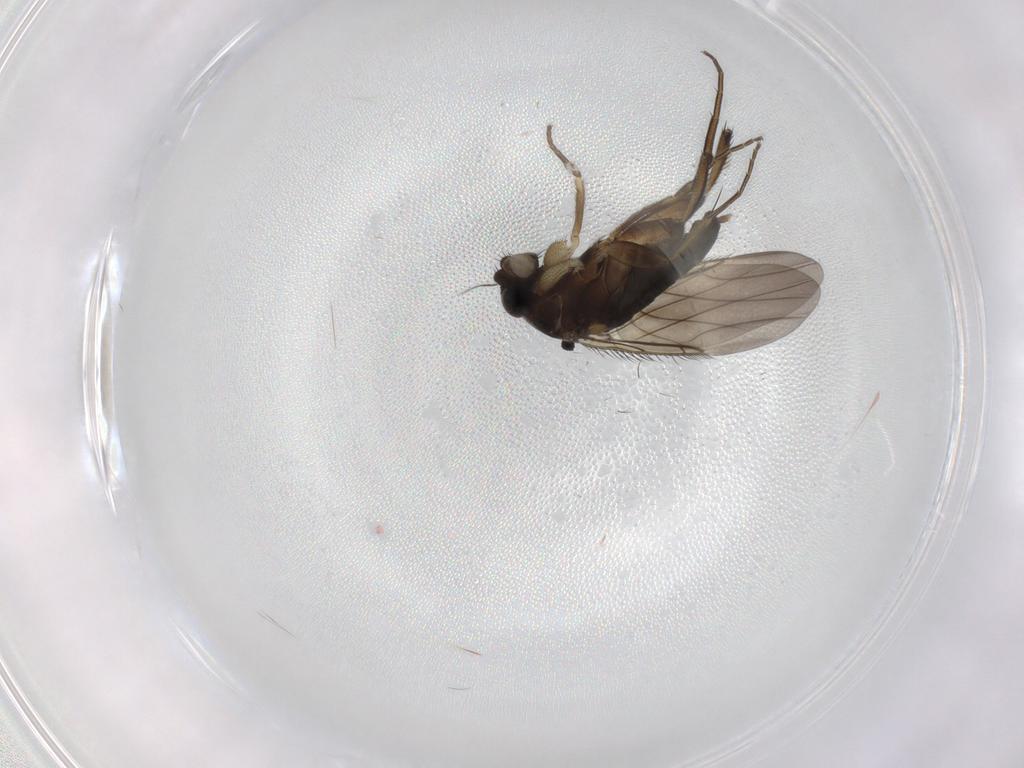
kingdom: Animalia
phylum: Arthropoda
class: Insecta
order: Diptera
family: Phoridae
